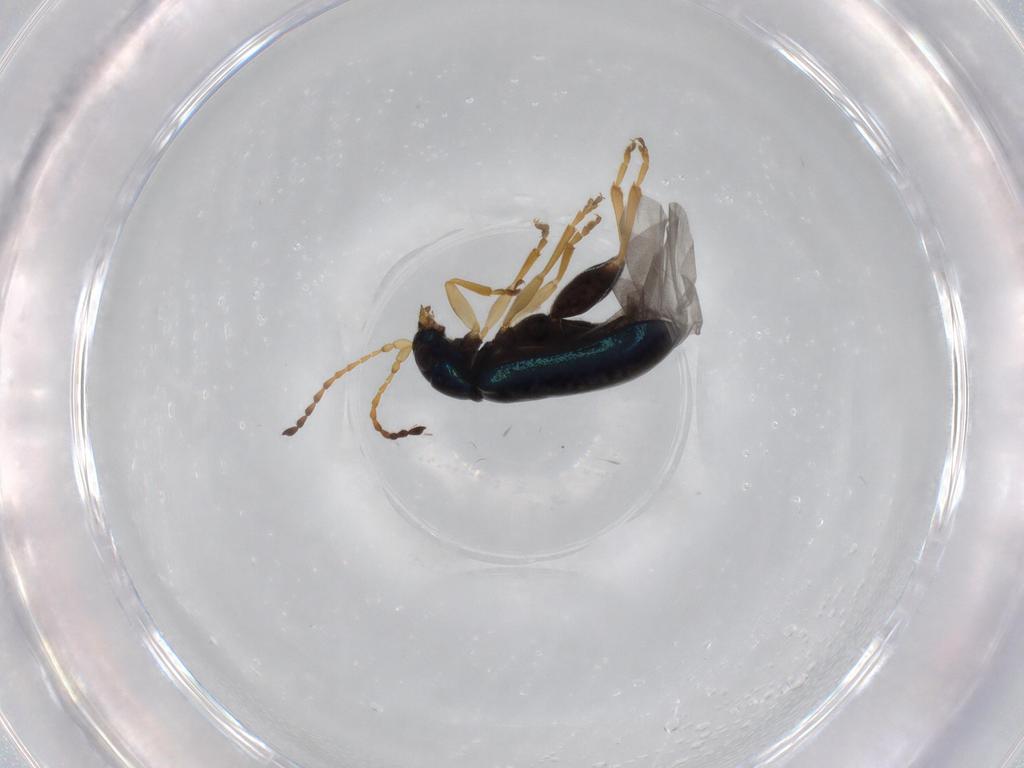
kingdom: Animalia
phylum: Arthropoda
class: Insecta
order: Coleoptera
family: Chrysomelidae
